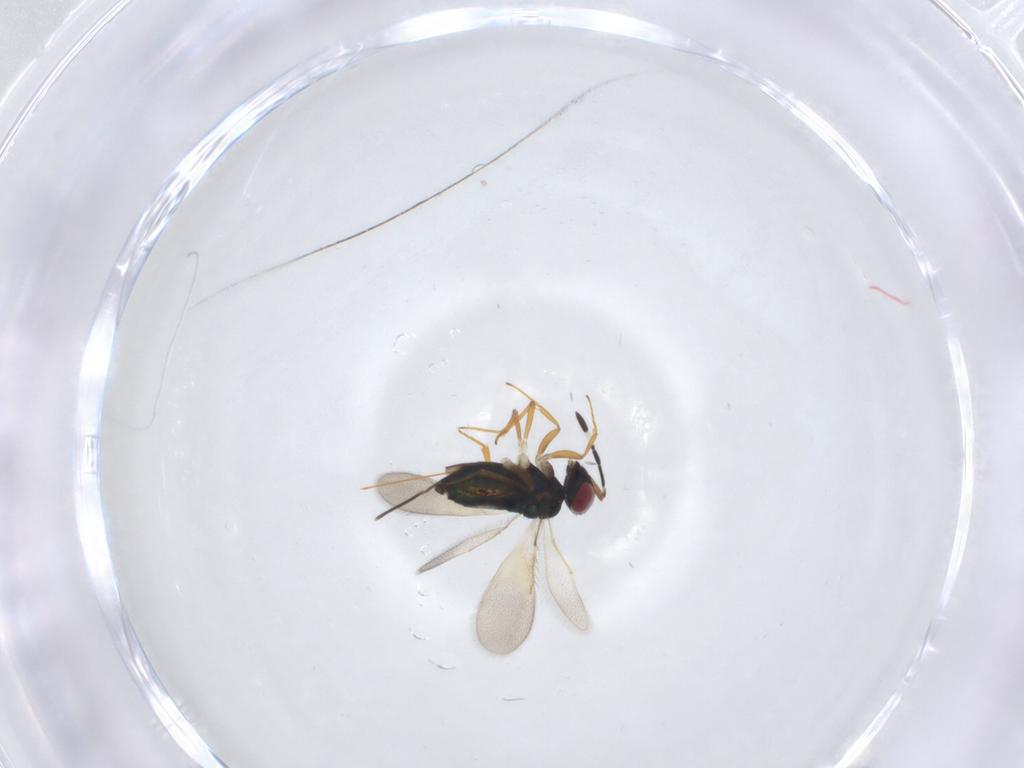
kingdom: Animalia
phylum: Arthropoda
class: Insecta
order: Hymenoptera
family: Azotidae
